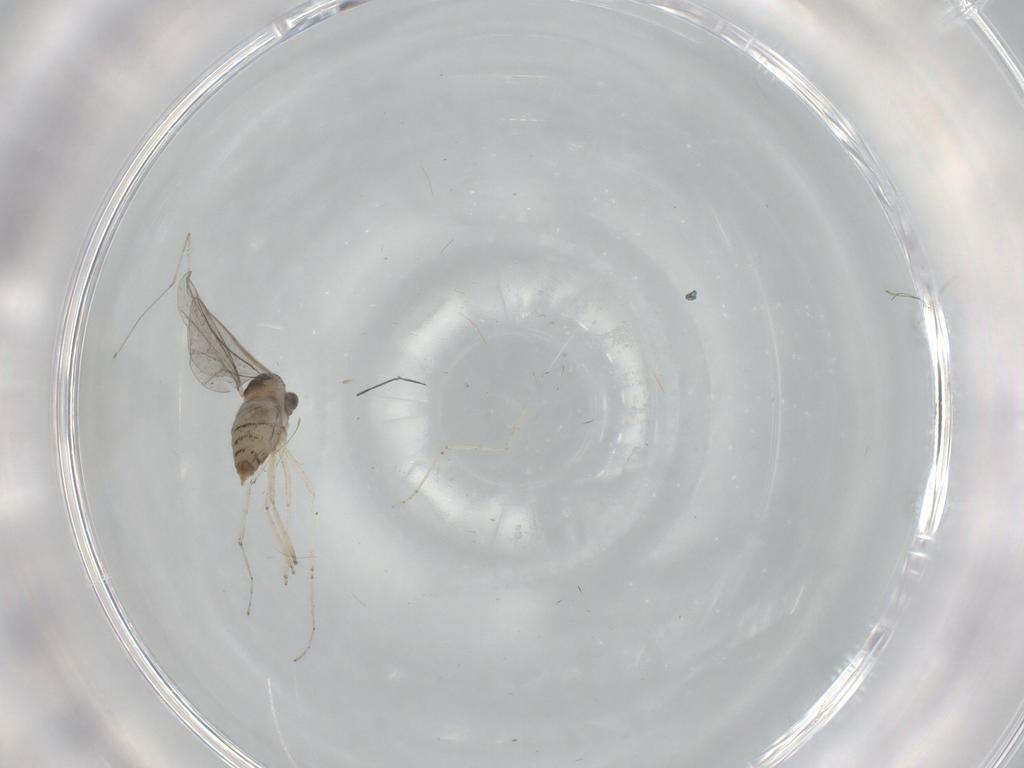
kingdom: Animalia
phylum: Arthropoda
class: Insecta
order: Diptera
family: Cecidomyiidae
